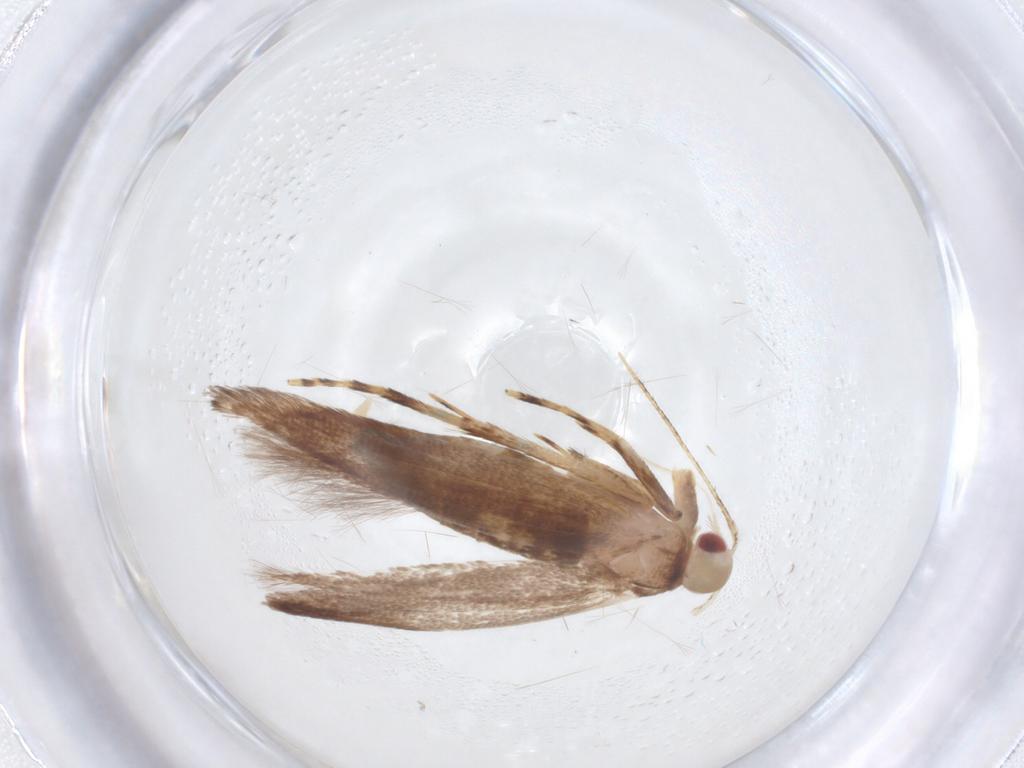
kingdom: Animalia
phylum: Arthropoda
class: Insecta
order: Lepidoptera
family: Cosmopterigidae
